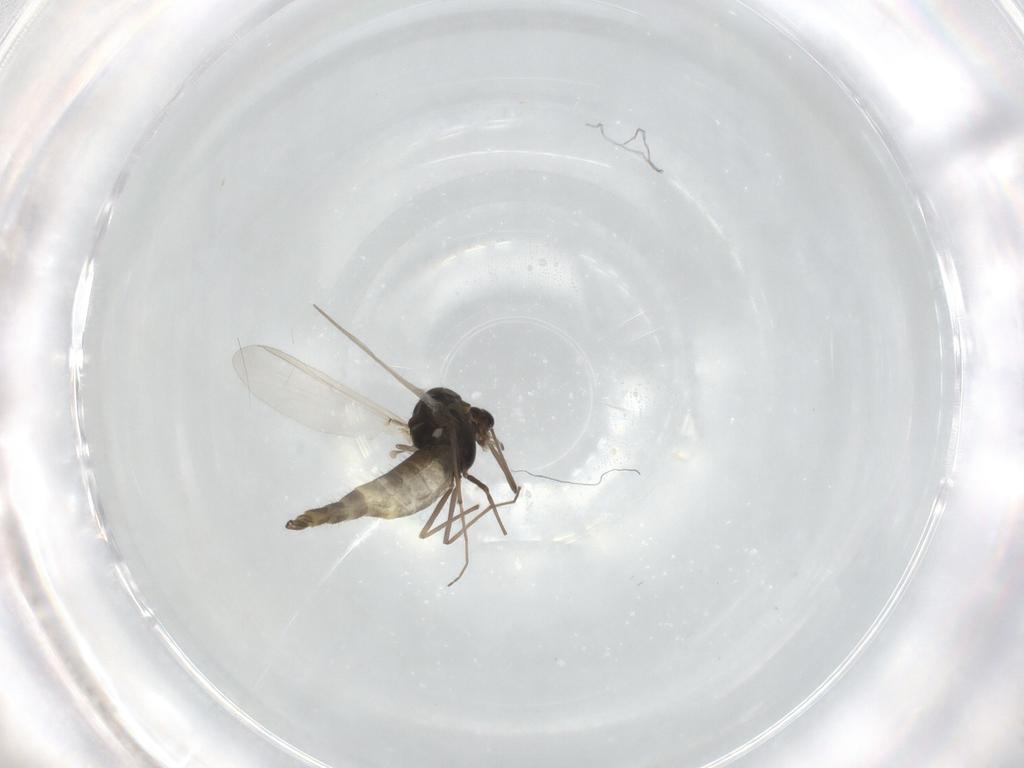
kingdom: Animalia
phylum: Arthropoda
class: Insecta
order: Diptera
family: Chironomidae
